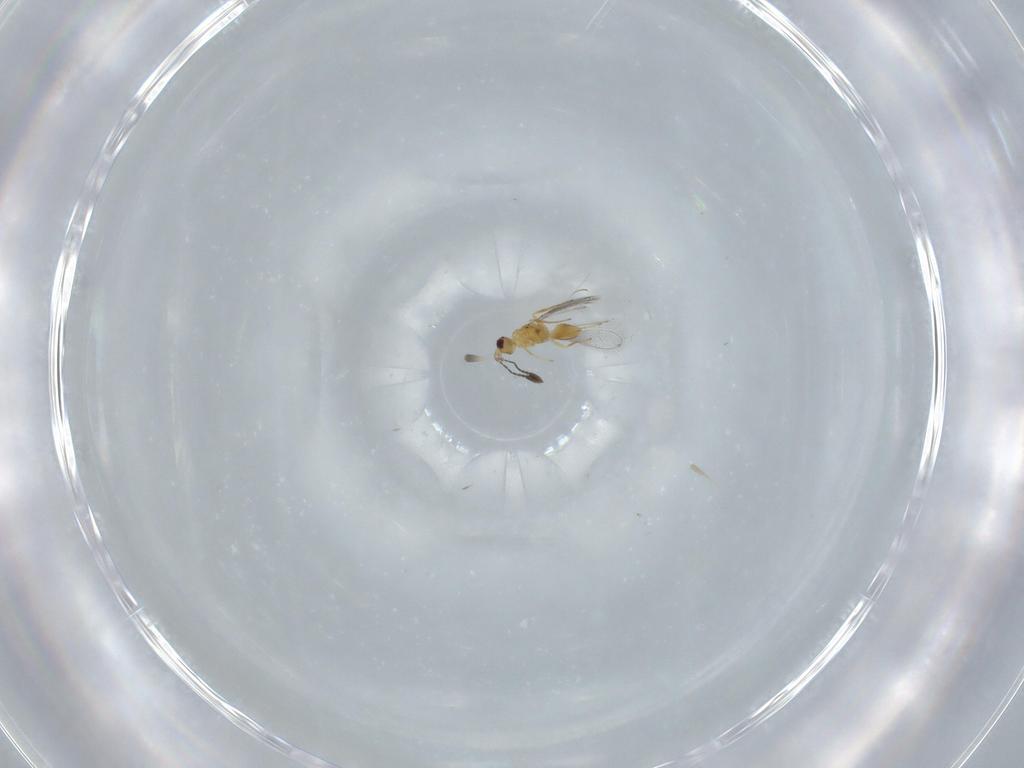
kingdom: Animalia
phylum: Arthropoda
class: Insecta
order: Hymenoptera
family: Mymaridae
